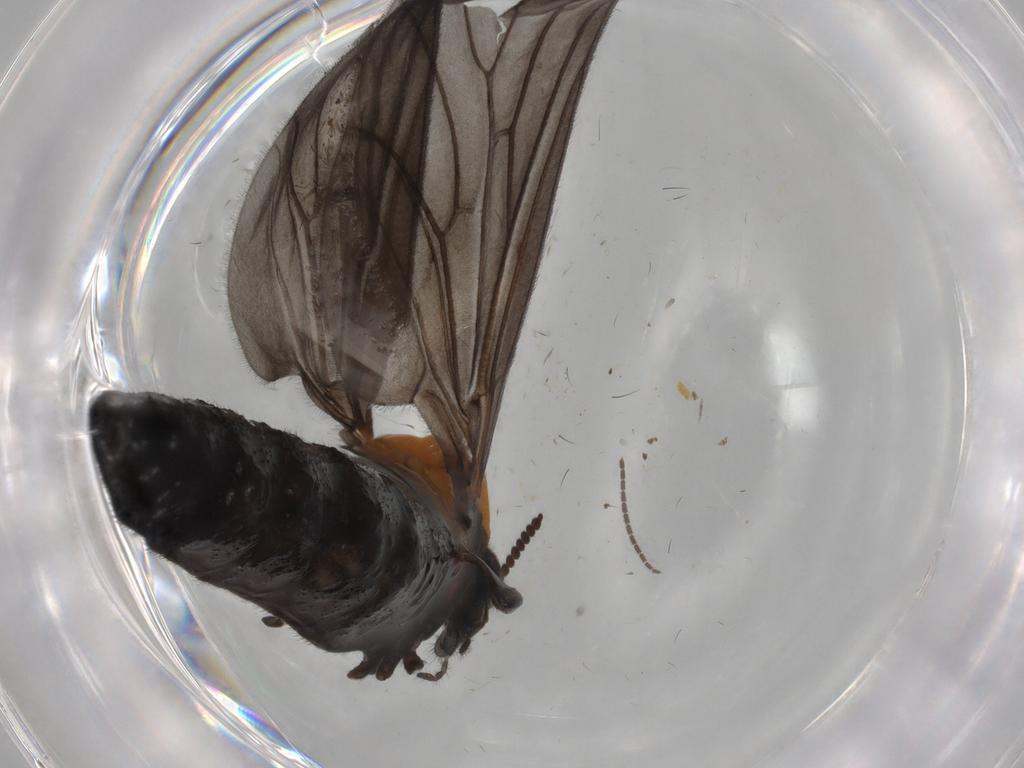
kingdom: Animalia
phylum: Arthropoda
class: Insecta
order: Diptera
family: Bibionidae
